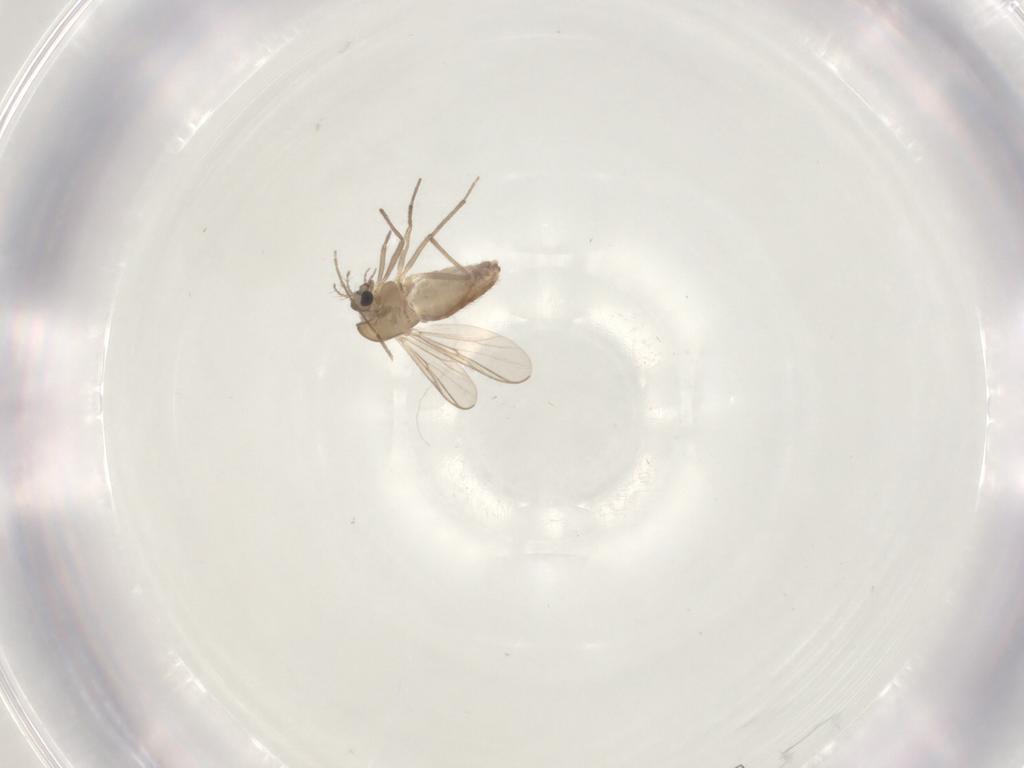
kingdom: Animalia
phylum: Arthropoda
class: Insecta
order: Diptera
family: Chironomidae
